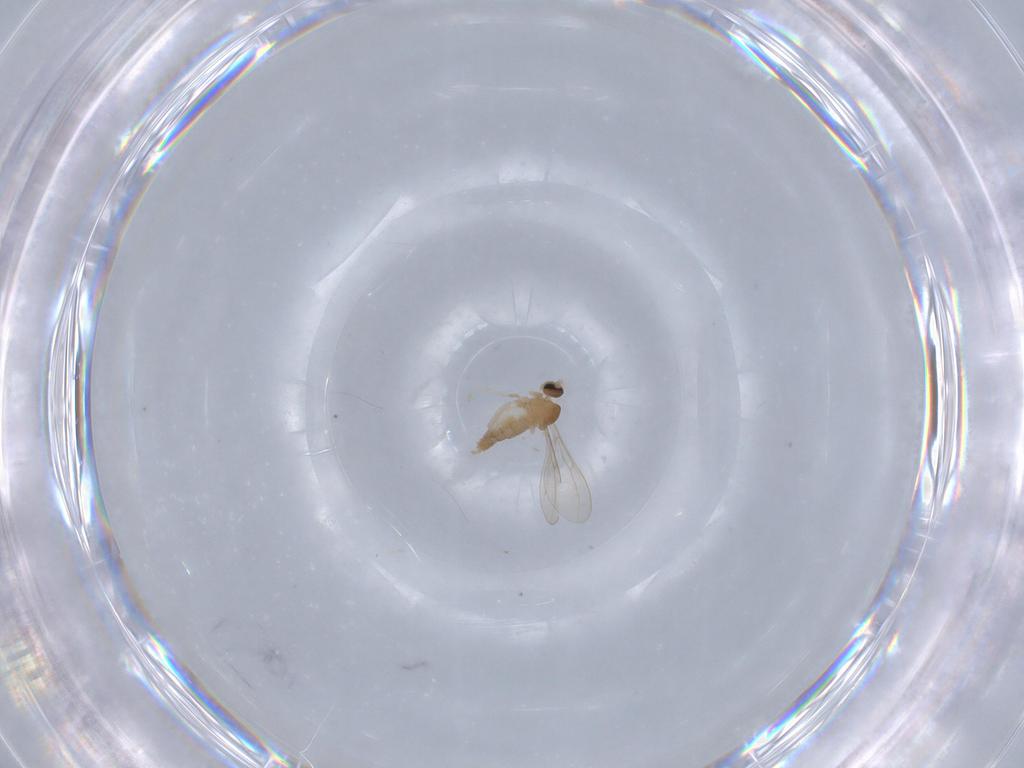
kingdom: Animalia
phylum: Arthropoda
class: Insecta
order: Diptera
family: Cecidomyiidae
